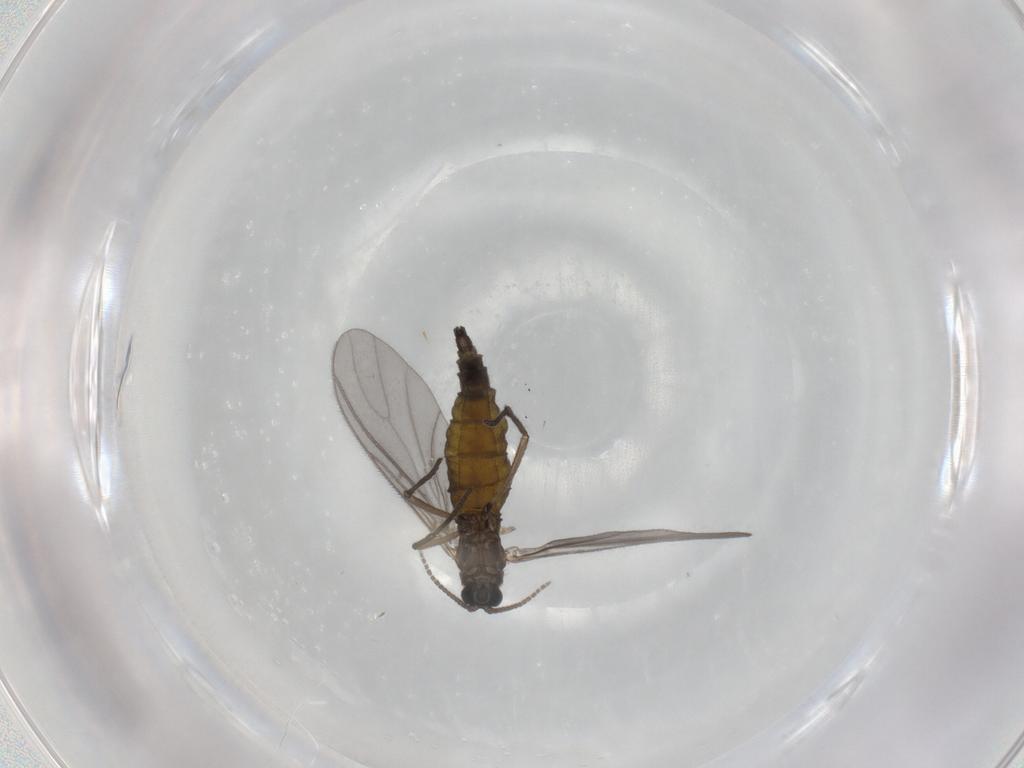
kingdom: Animalia
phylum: Arthropoda
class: Insecta
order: Diptera
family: Sciaridae
